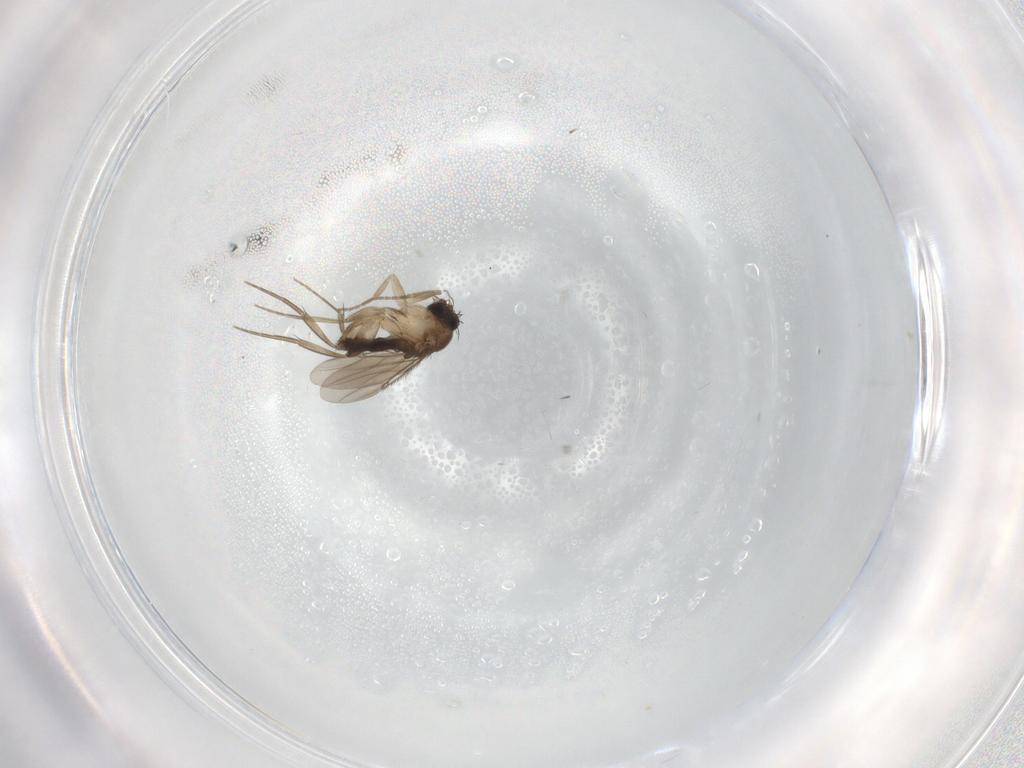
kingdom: Animalia
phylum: Arthropoda
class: Insecta
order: Diptera
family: Phoridae
